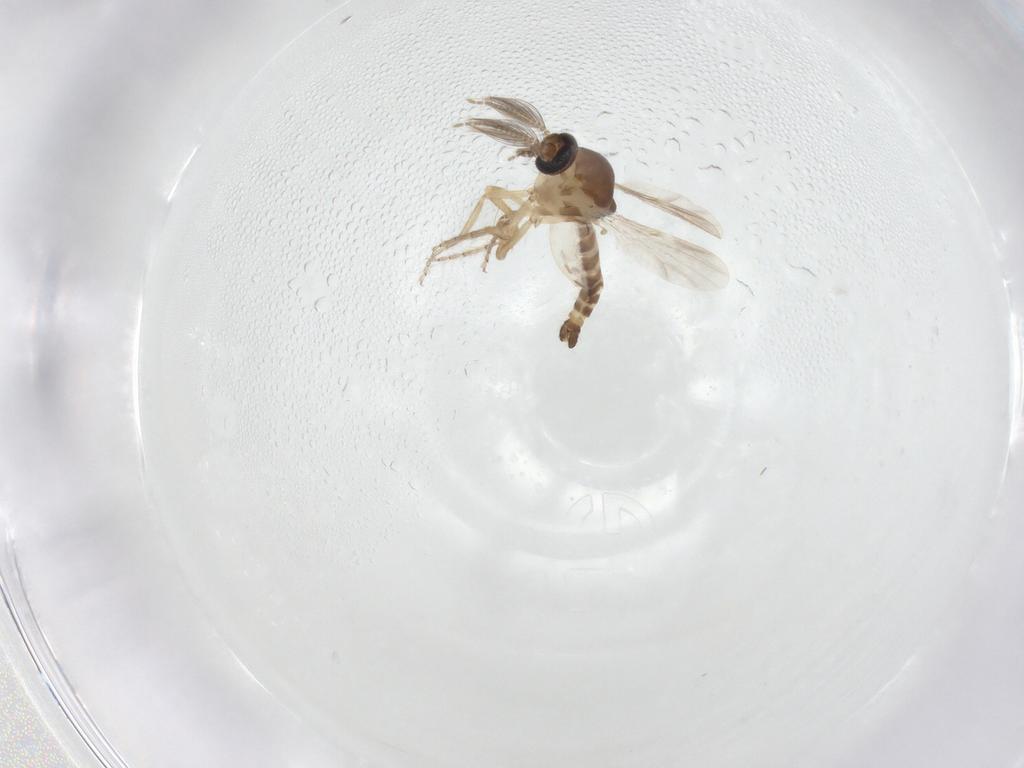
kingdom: Animalia
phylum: Arthropoda
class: Insecta
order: Diptera
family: Ceratopogonidae
